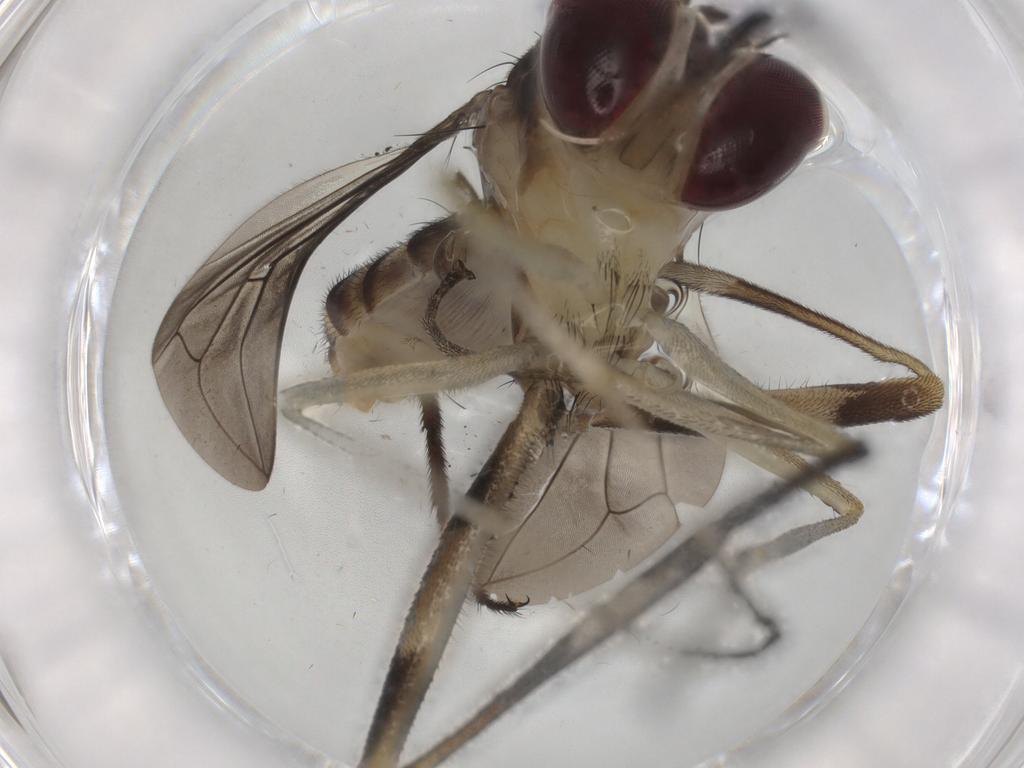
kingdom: Animalia
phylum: Arthropoda
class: Insecta
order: Diptera
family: Conopidae
